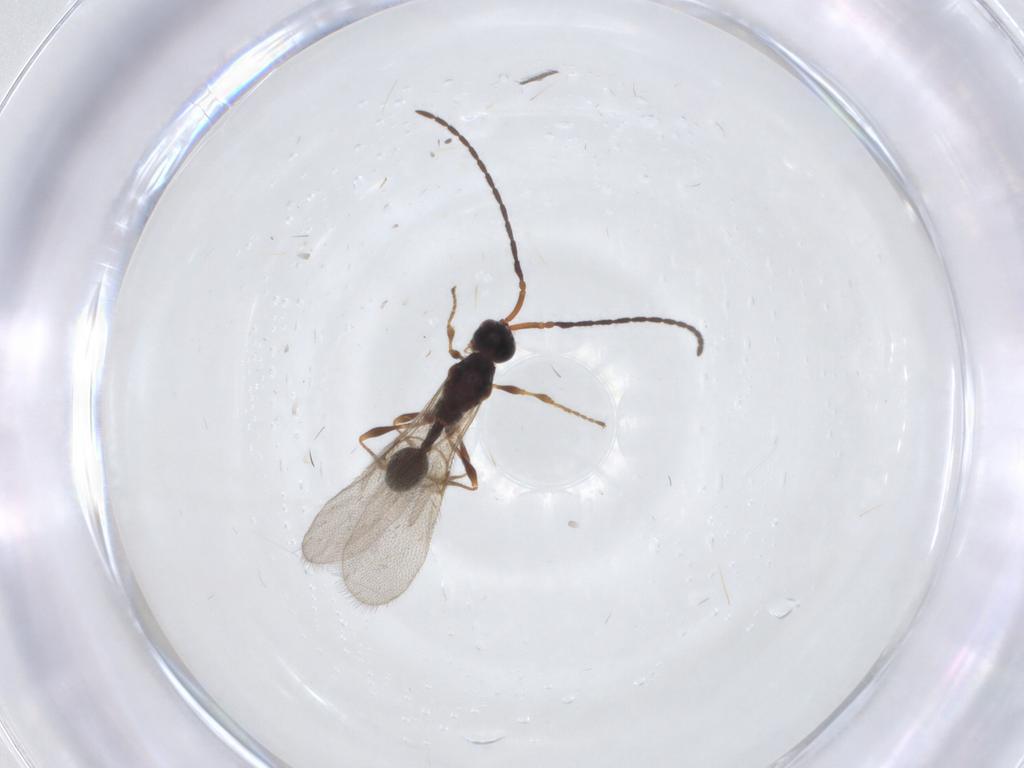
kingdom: Animalia
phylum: Arthropoda
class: Insecta
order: Hymenoptera
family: Diapriidae
